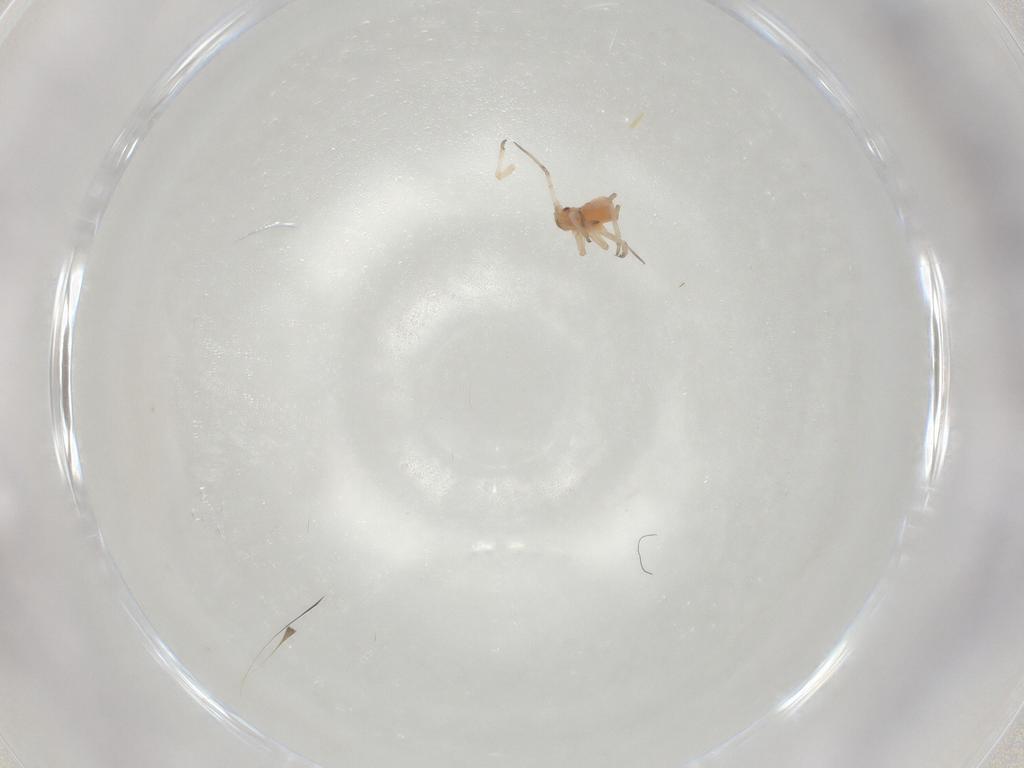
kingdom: Animalia
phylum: Arthropoda
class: Insecta
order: Hemiptera
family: Aphididae
